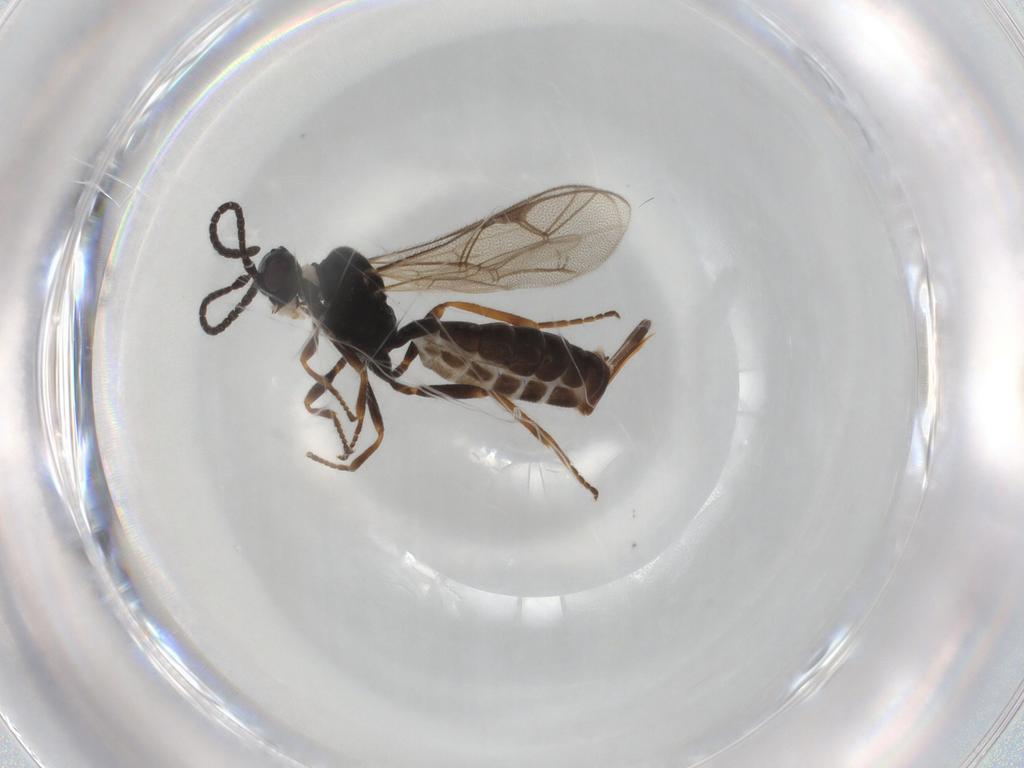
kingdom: Animalia
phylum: Arthropoda
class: Insecta
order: Hymenoptera
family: Ichneumonidae
